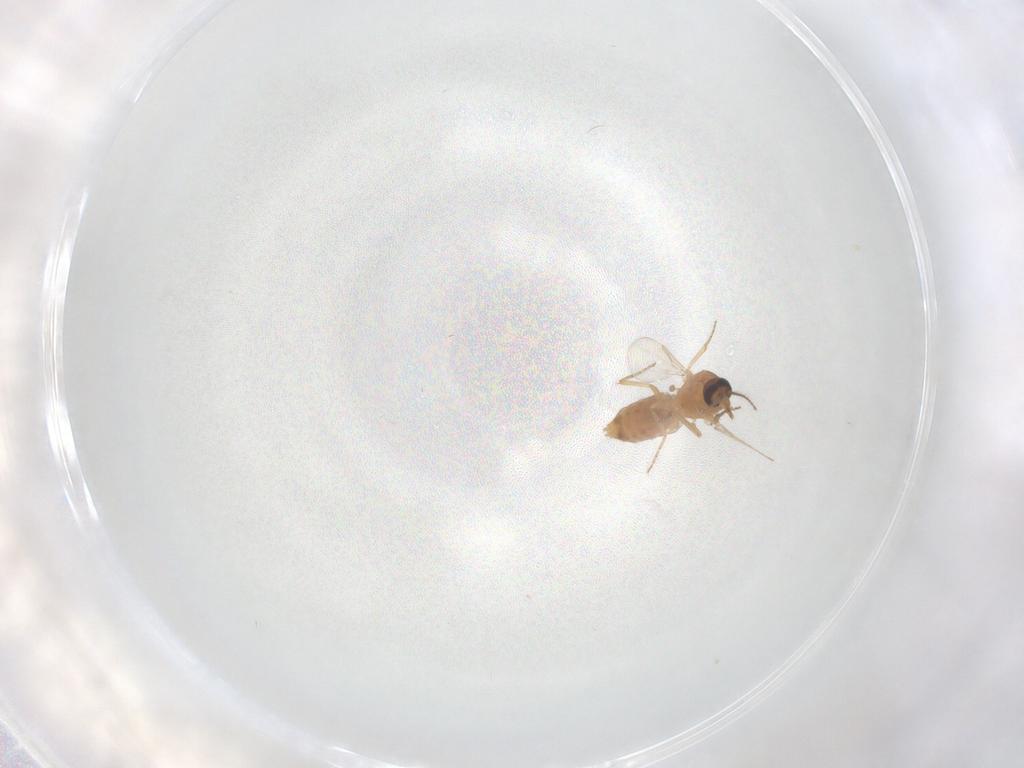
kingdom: Animalia
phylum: Arthropoda
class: Insecta
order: Diptera
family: Ceratopogonidae
